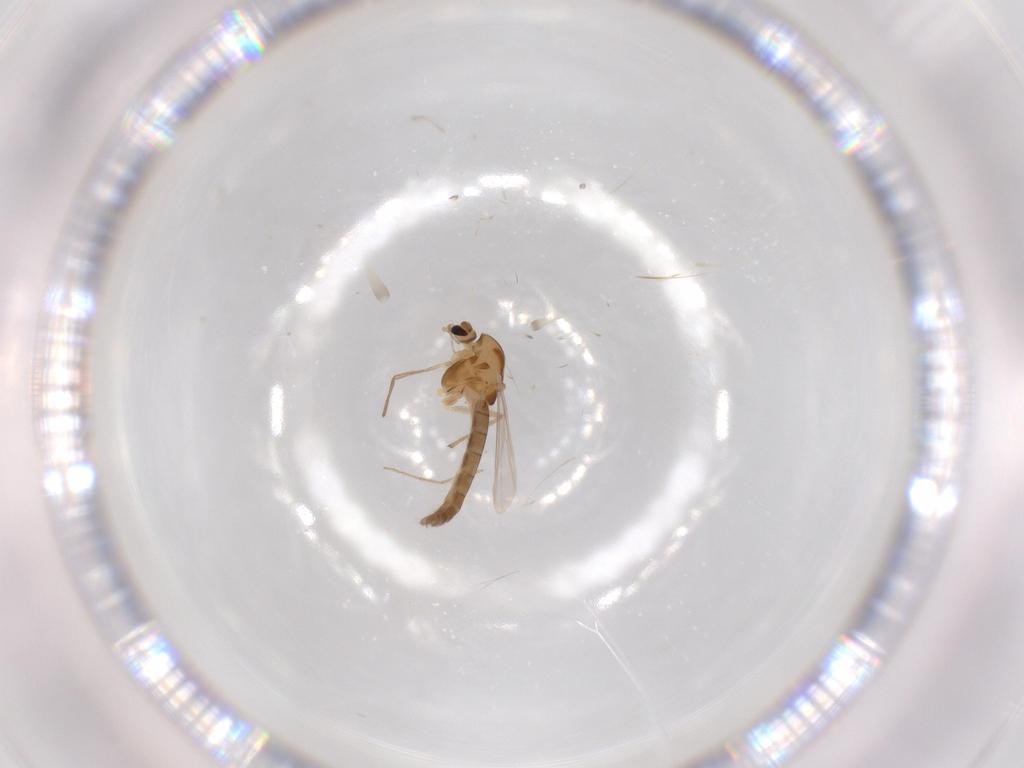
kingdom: Animalia
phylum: Arthropoda
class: Insecta
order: Diptera
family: Chironomidae
